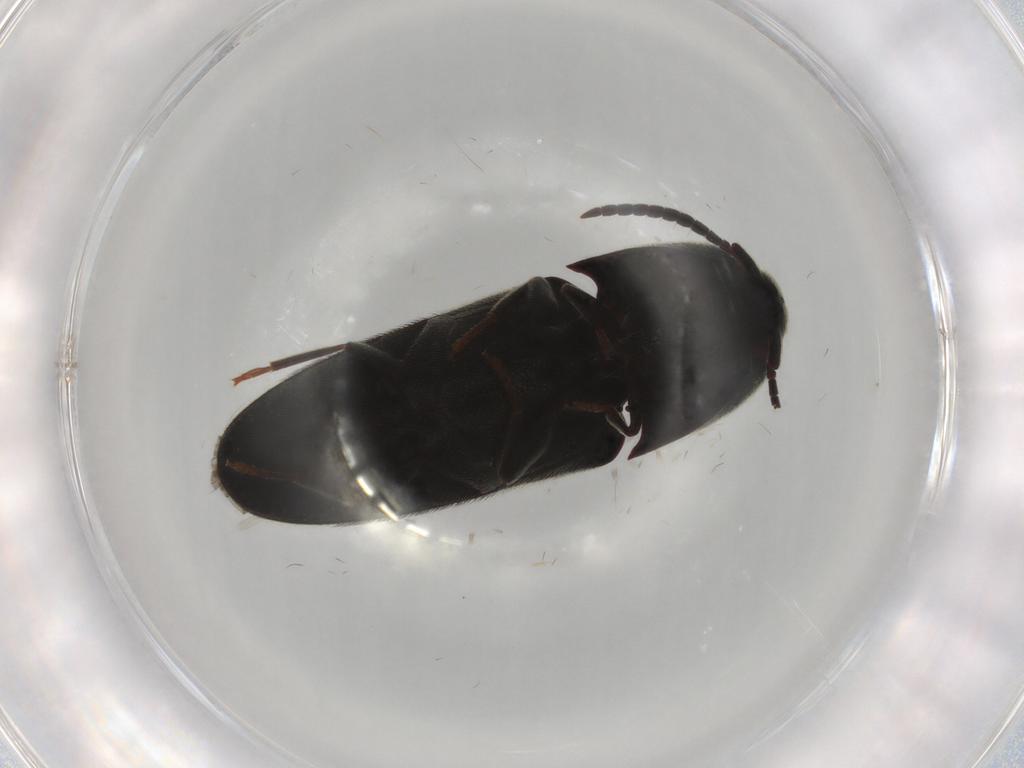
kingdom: Animalia
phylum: Arthropoda
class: Insecta
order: Coleoptera
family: Eucnemidae
